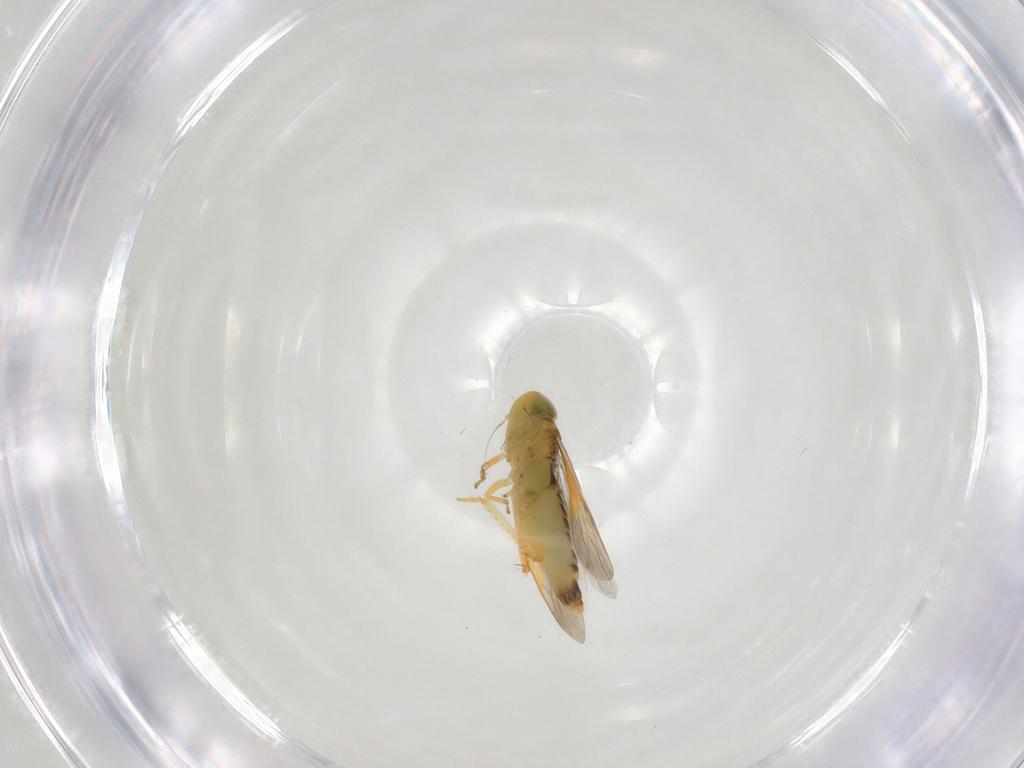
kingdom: Animalia
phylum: Arthropoda
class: Insecta
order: Hemiptera
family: Cicadellidae
